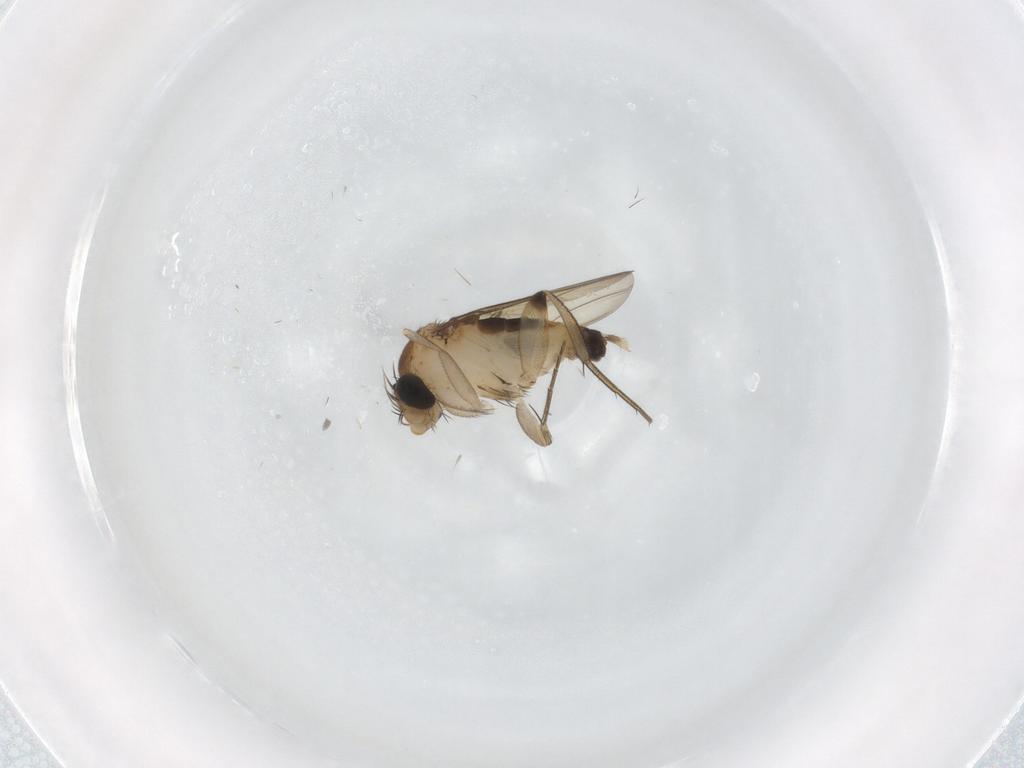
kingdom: Animalia
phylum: Arthropoda
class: Insecta
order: Diptera
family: Phoridae
